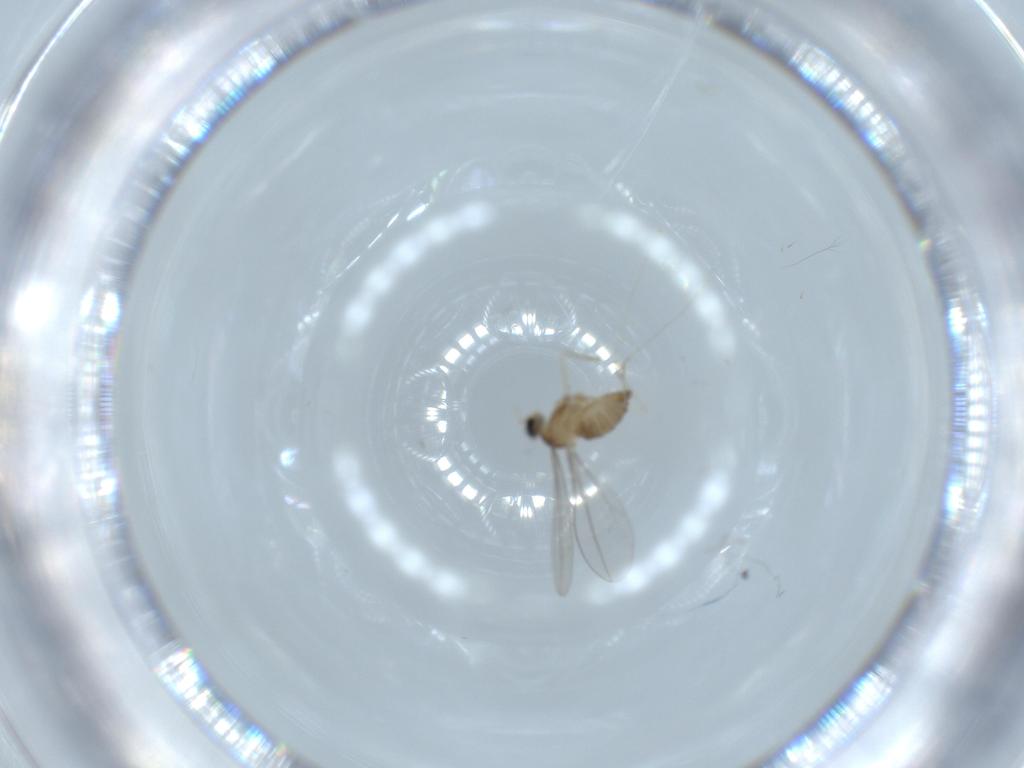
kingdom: Animalia
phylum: Arthropoda
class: Insecta
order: Diptera
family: Cecidomyiidae
